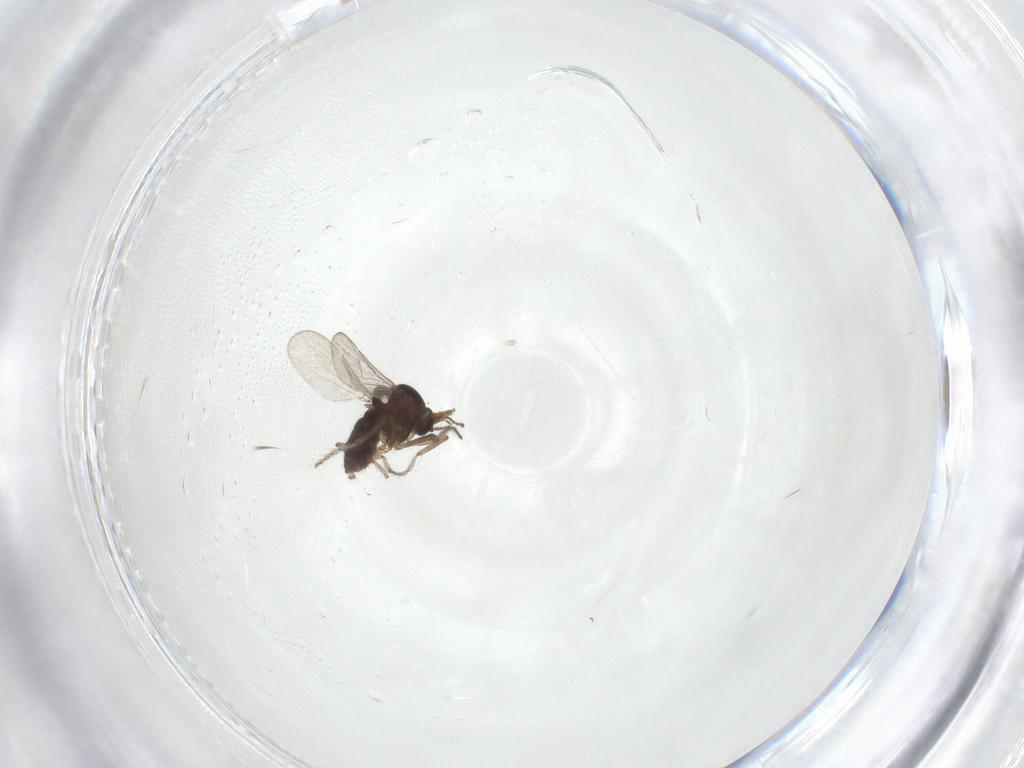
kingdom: Animalia
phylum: Arthropoda
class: Insecta
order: Diptera
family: Ceratopogonidae
